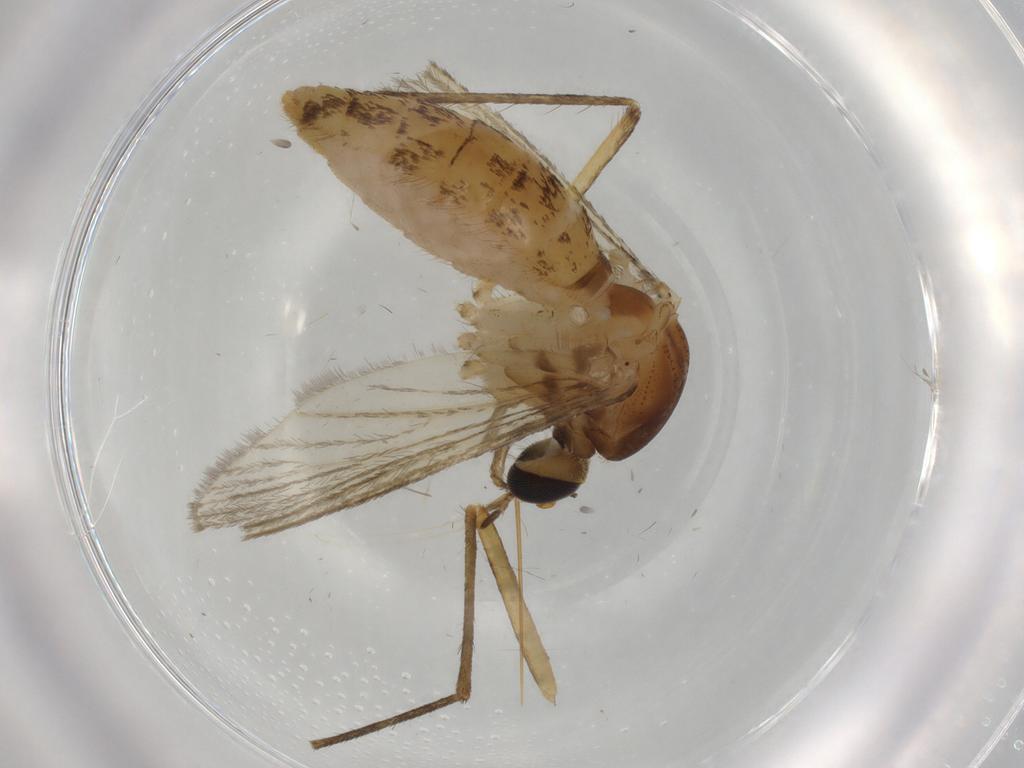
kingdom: Animalia
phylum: Arthropoda
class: Insecta
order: Diptera
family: Culicidae
